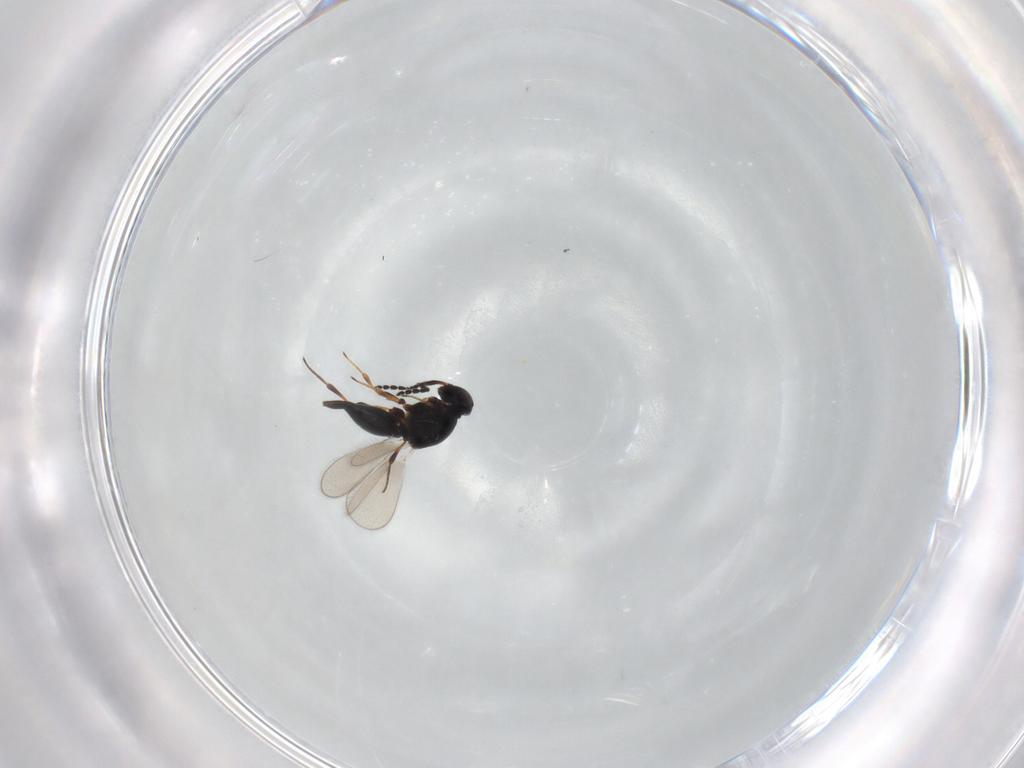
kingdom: Animalia
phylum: Arthropoda
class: Insecta
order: Hymenoptera
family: Platygastridae
